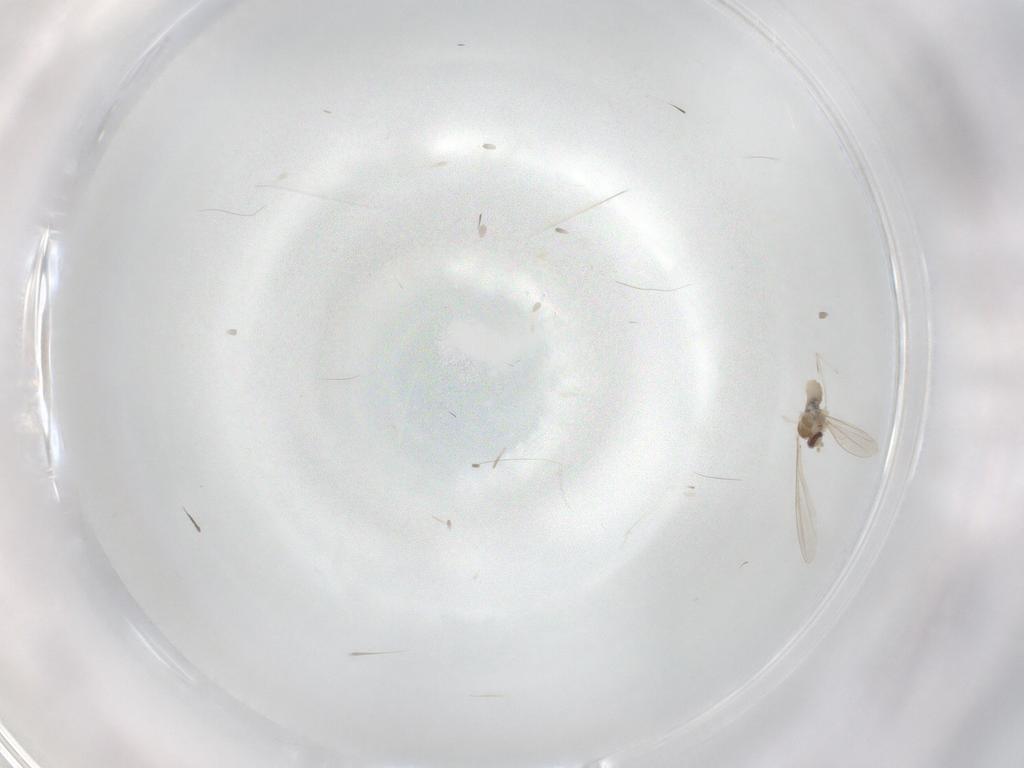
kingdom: Animalia
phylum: Arthropoda
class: Insecta
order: Diptera
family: Cecidomyiidae
